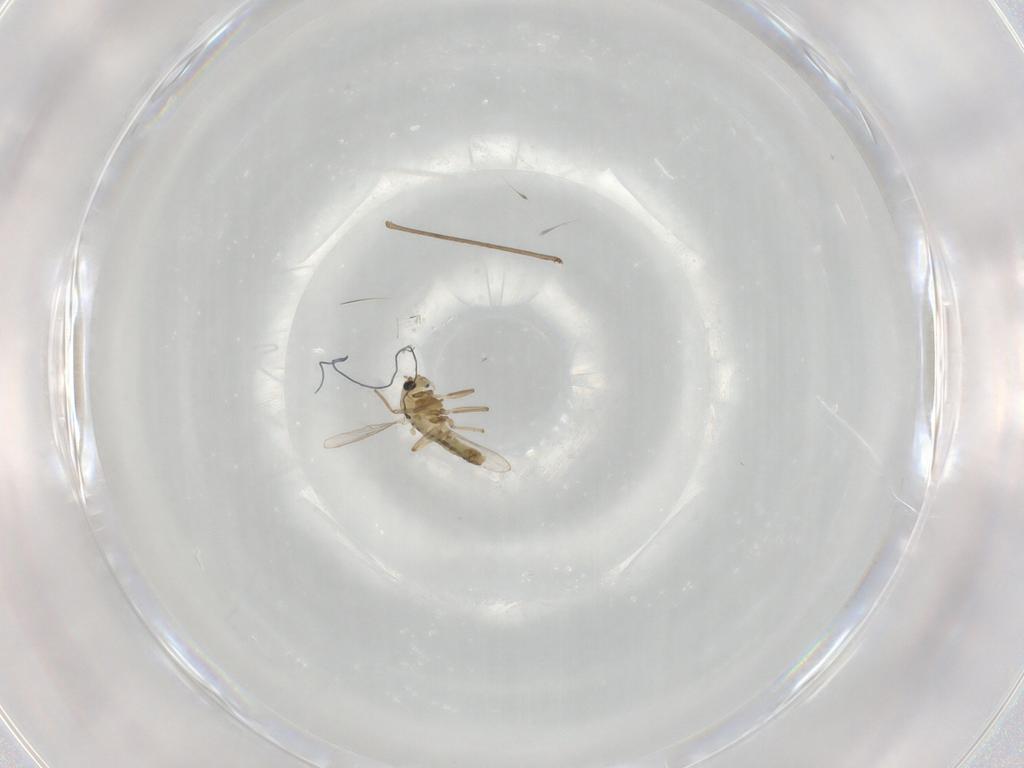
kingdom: Animalia
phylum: Arthropoda
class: Insecta
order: Diptera
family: Chironomidae
